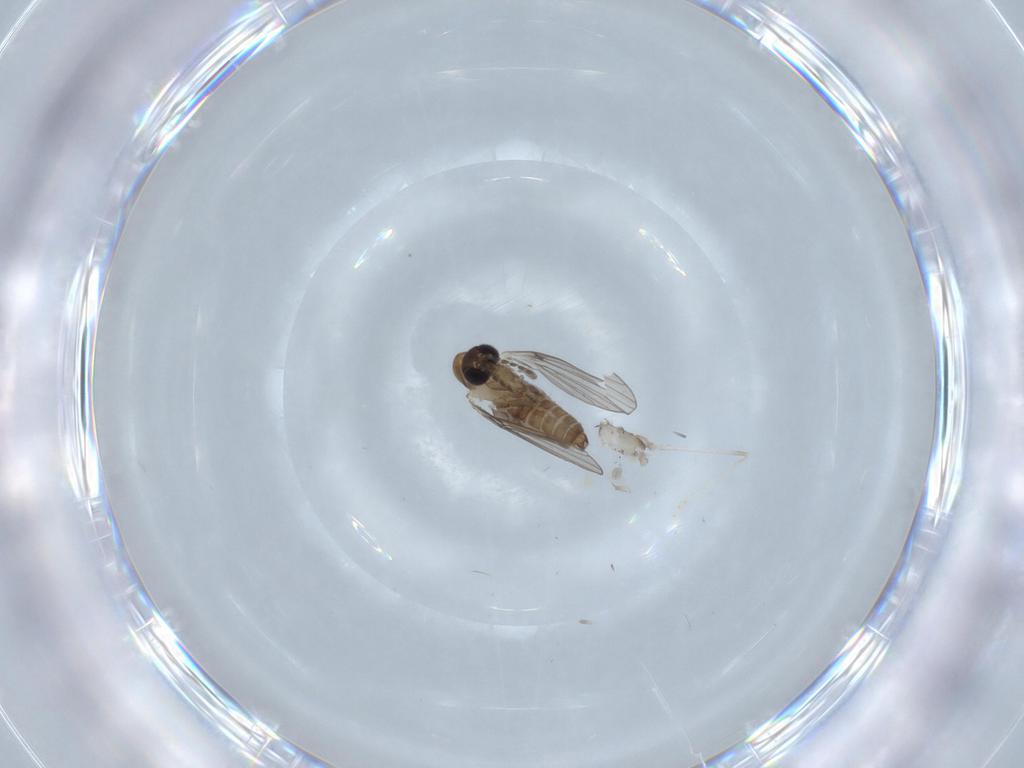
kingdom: Animalia
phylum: Arthropoda
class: Insecta
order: Diptera
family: Cecidomyiidae
